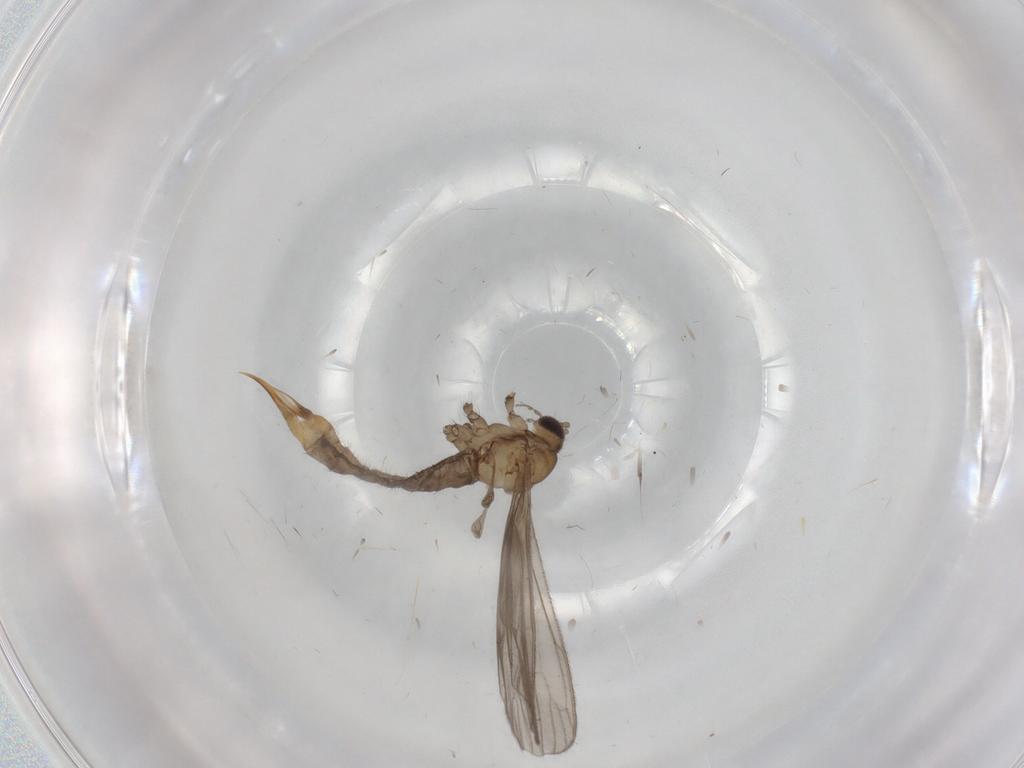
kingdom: Animalia
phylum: Arthropoda
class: Insecta
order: Diptera
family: Limoniidae
